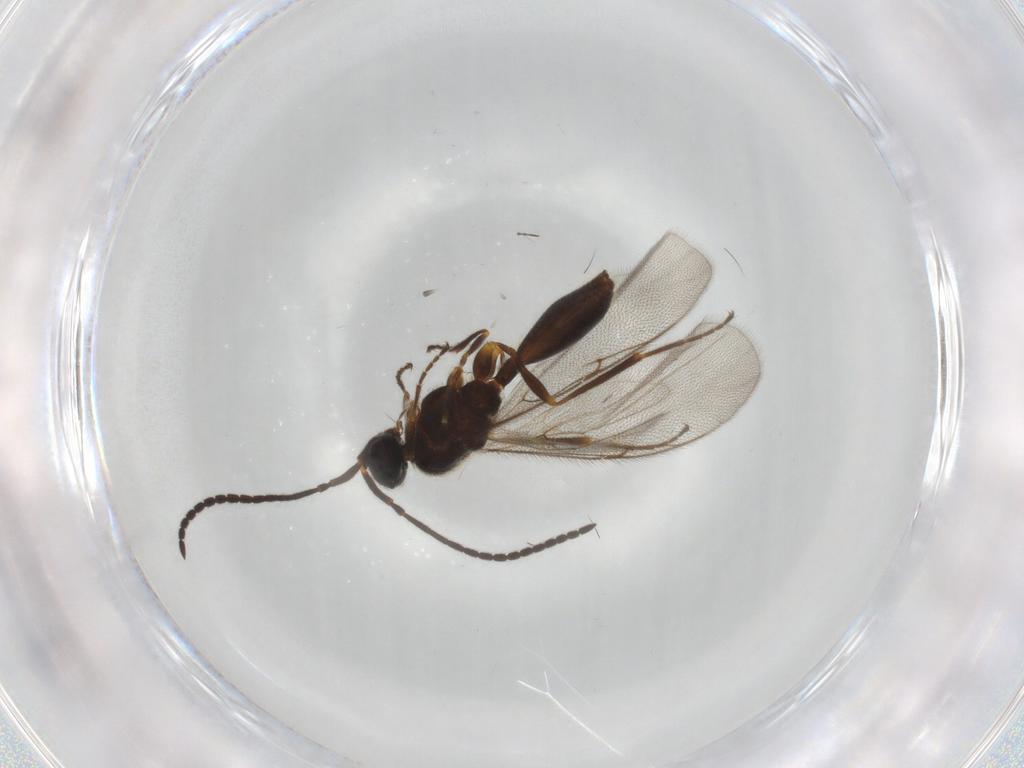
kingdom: Animalia
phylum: Arthropoda
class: Insecta
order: Hymenoptera
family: Diapriidae
